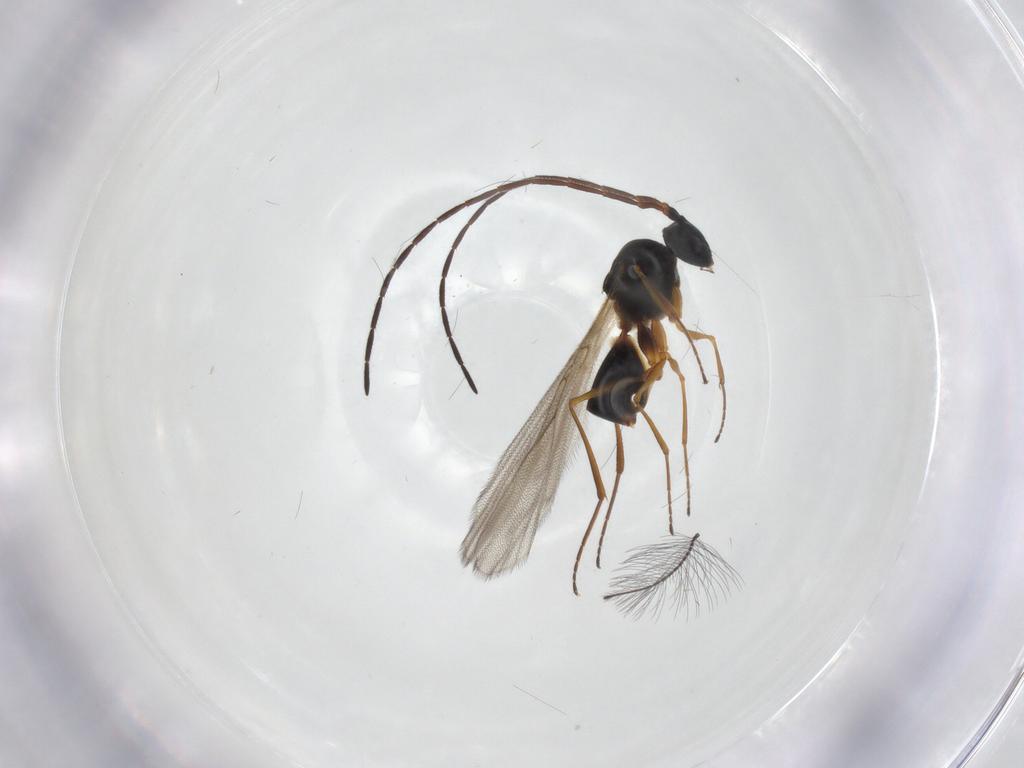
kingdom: Animalia
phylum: Arthropoda
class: Insecta
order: Hymenoptera
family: Figitidae
